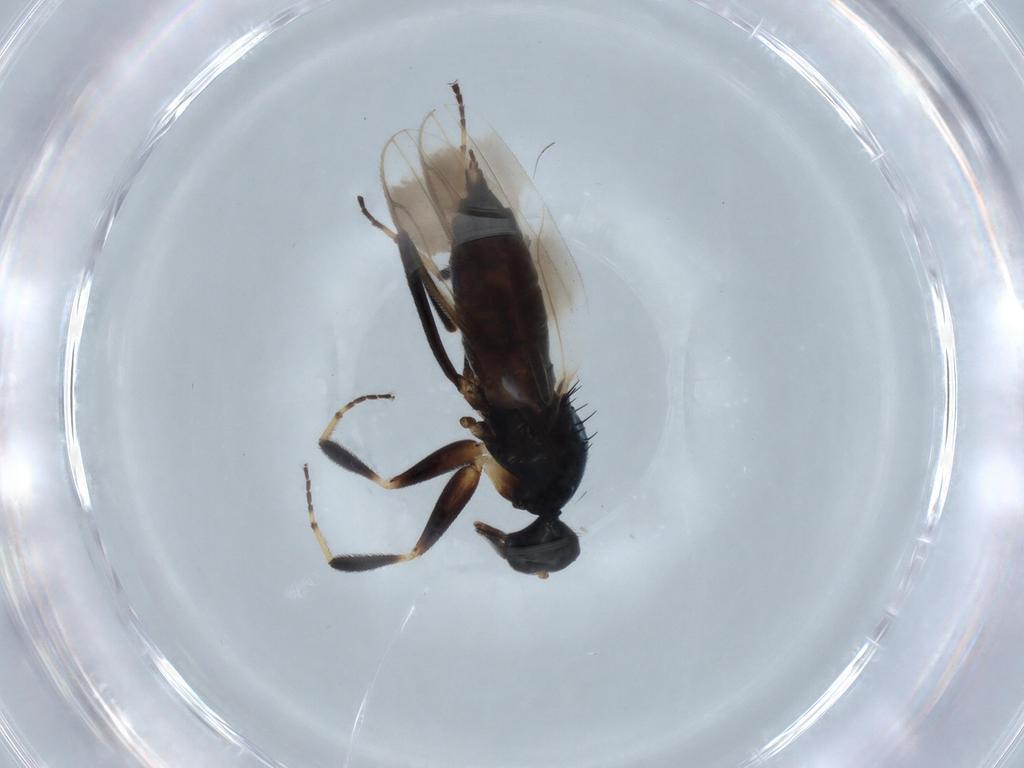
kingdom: Animalia
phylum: Arthropoda
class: Insecta
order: Diptera
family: Hybotidae
